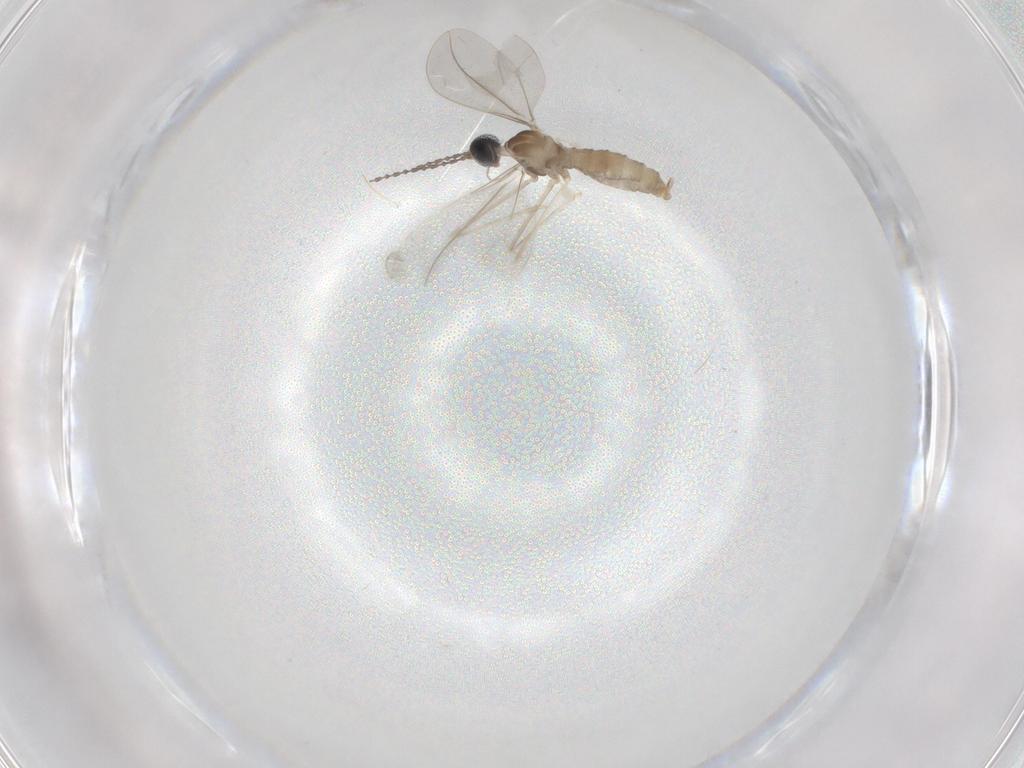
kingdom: Animalia
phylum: Arthropoda
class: Insecta
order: Diptera
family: Cecidomyiidae
